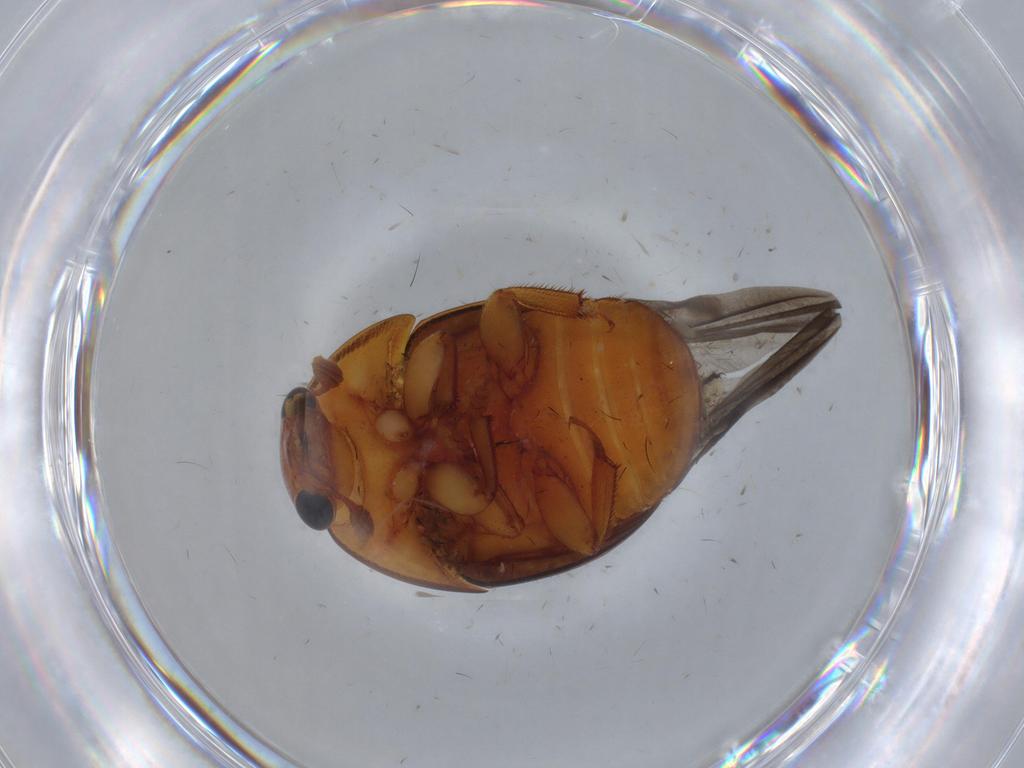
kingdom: Animalia
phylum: Arthropoda
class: Insecta
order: Coleoptera
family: Nitidulidae
